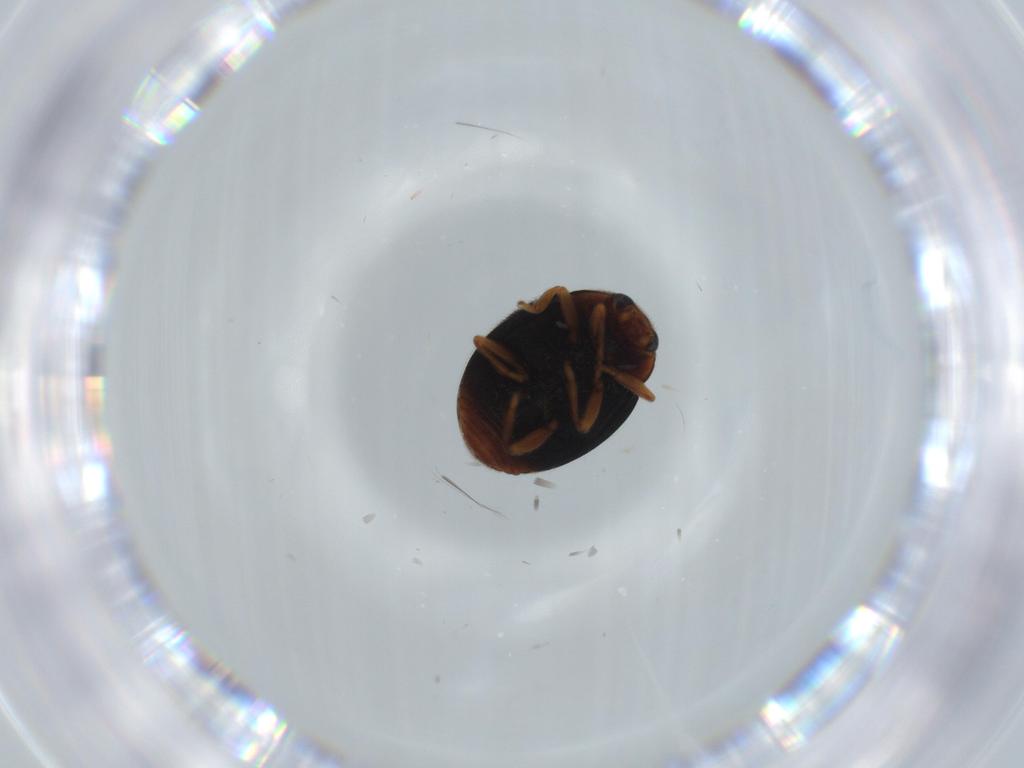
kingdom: Animalia
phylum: Arthropoda
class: Insecta
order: Coleoptera
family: Coccinellidae
